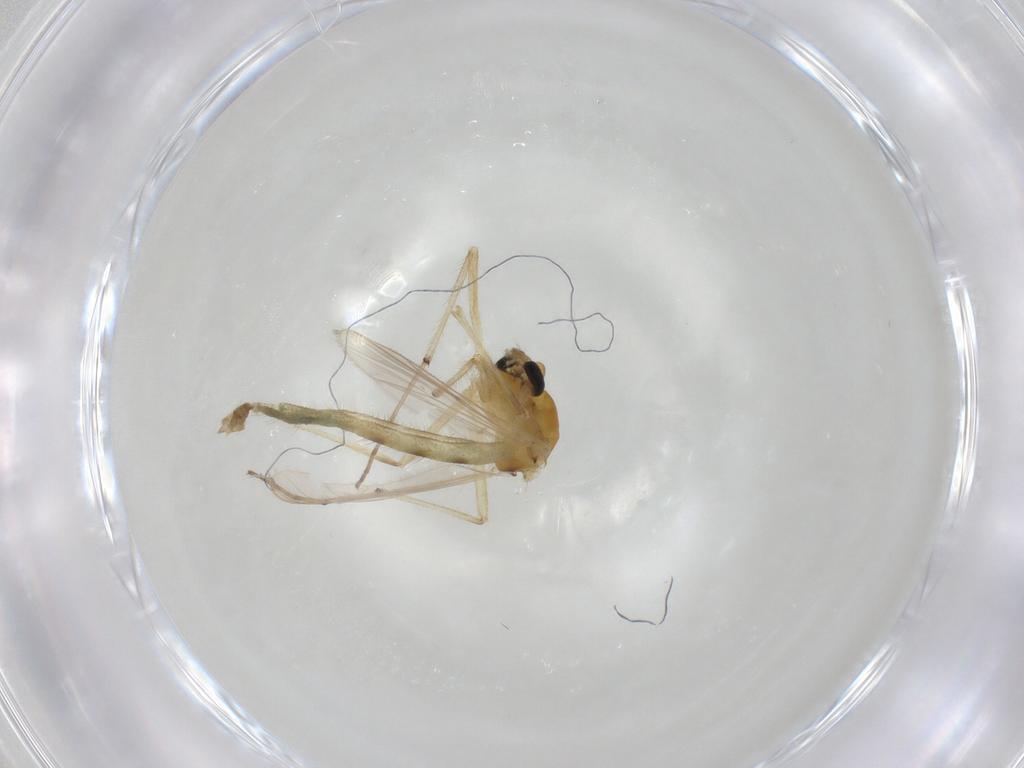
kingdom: Animalia
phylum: Arthropoda
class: Insecta
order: Diptera
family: Chironomidae
